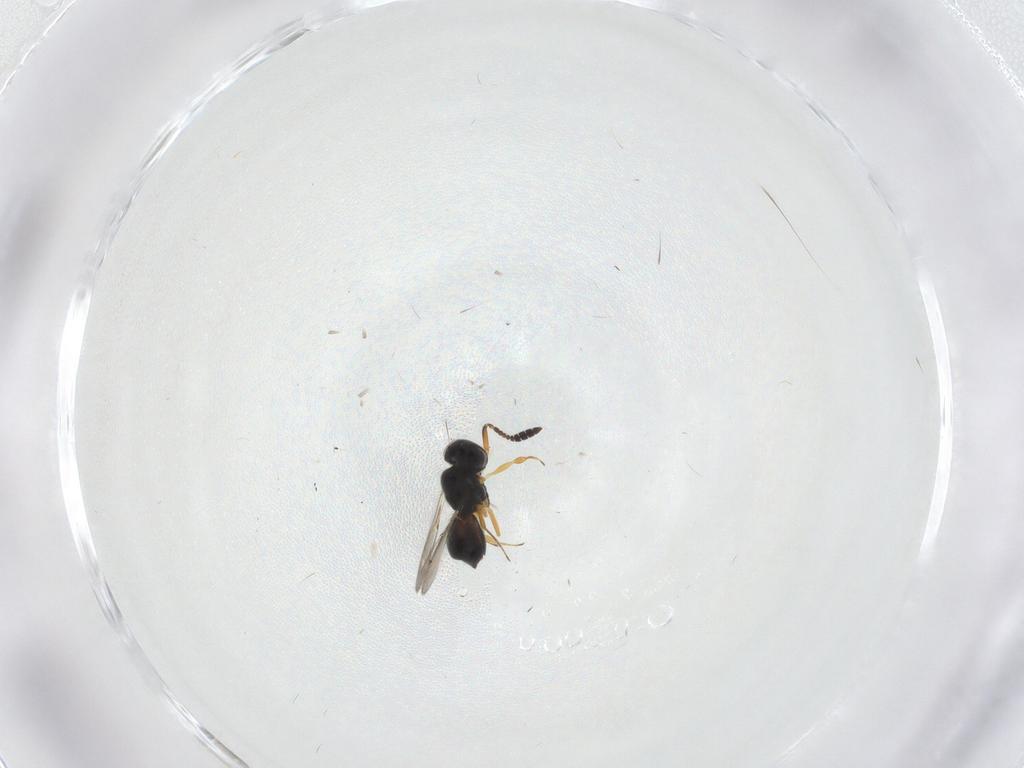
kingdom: Animalia
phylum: Arthropoda
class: Insecta
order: Hymenoptera
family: Scelionidae
